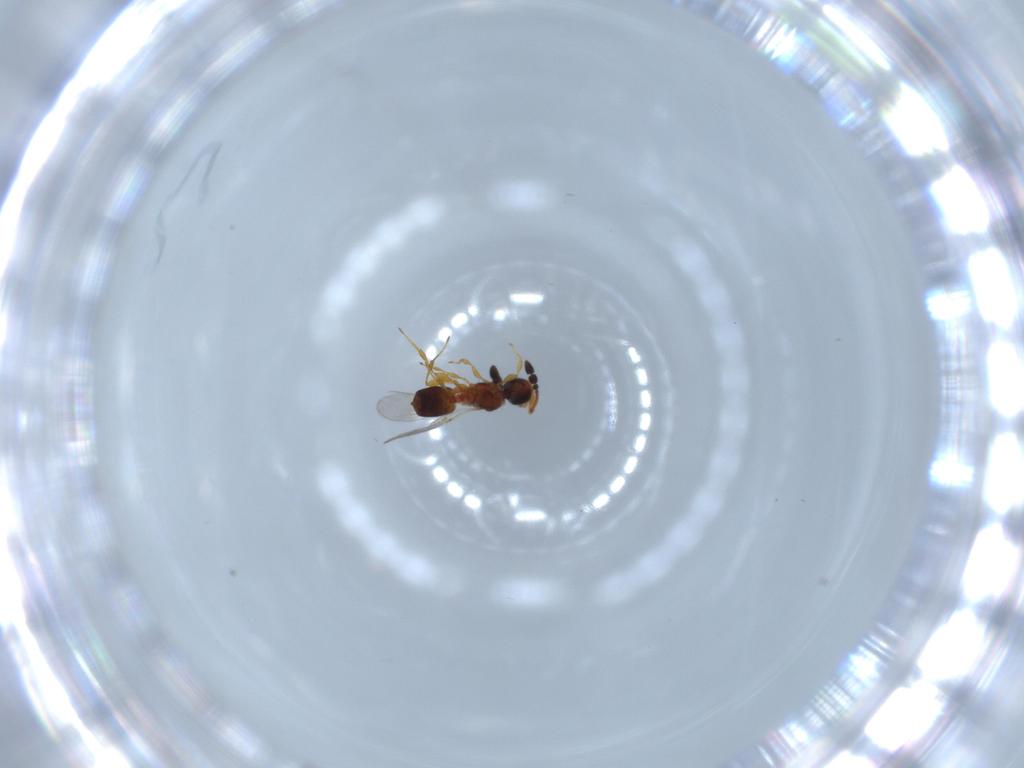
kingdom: Animalia
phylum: Arthropoda
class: Insecta
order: Hymenoptera
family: Diapriidae
